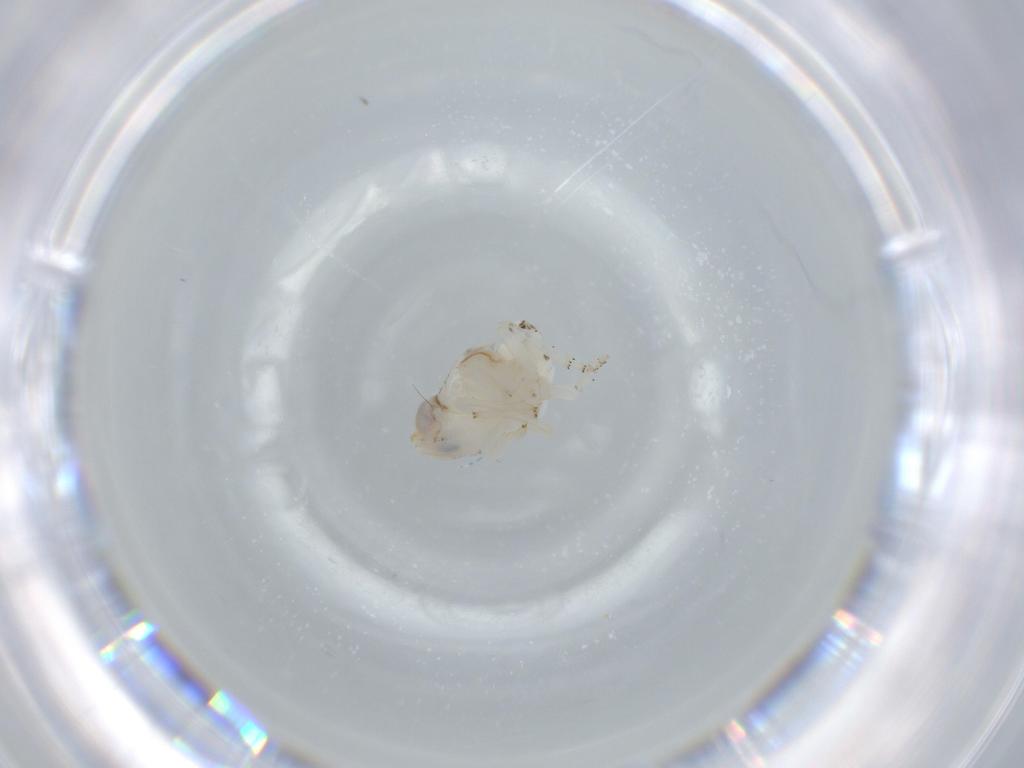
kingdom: Animalia
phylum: Arthropoda
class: Insecta
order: Hemiptera
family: Nogodinidae
